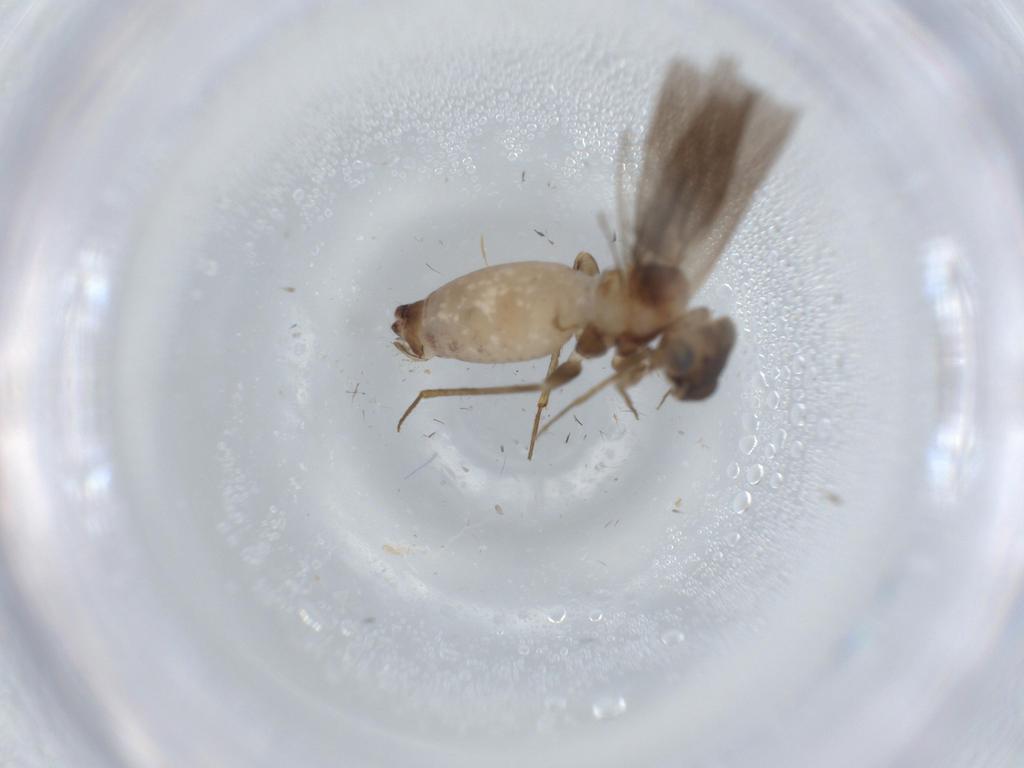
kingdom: Animalia
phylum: Arthropoda
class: Insecta
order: Psocodea
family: Lepidopsocidae
